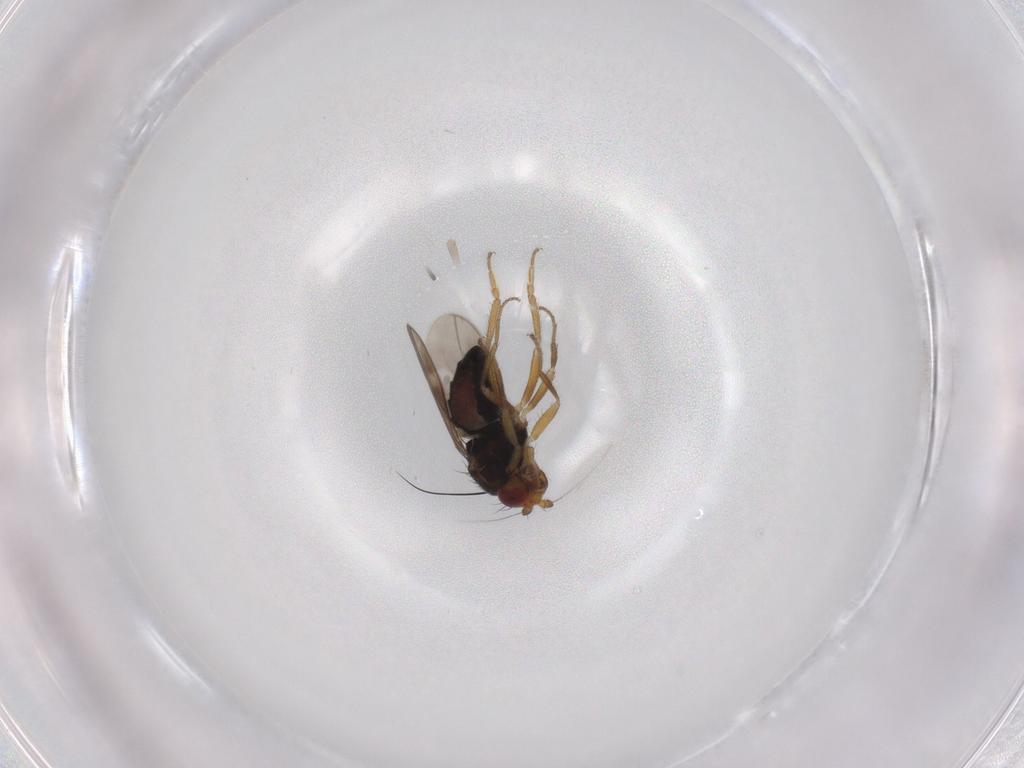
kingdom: Animalia
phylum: Arthropoda
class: Insecta
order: Diptera
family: Sphaeroceridae
